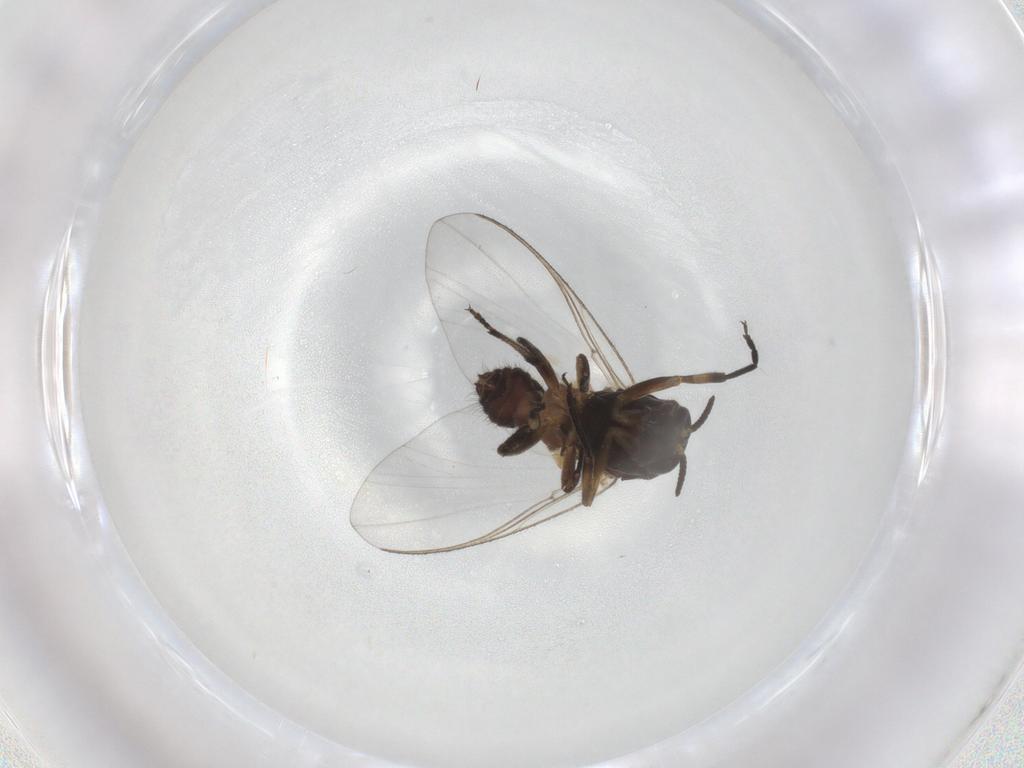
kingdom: Animalia
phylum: Arthropoda
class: Insecta
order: Diptera
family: Simuliidae
